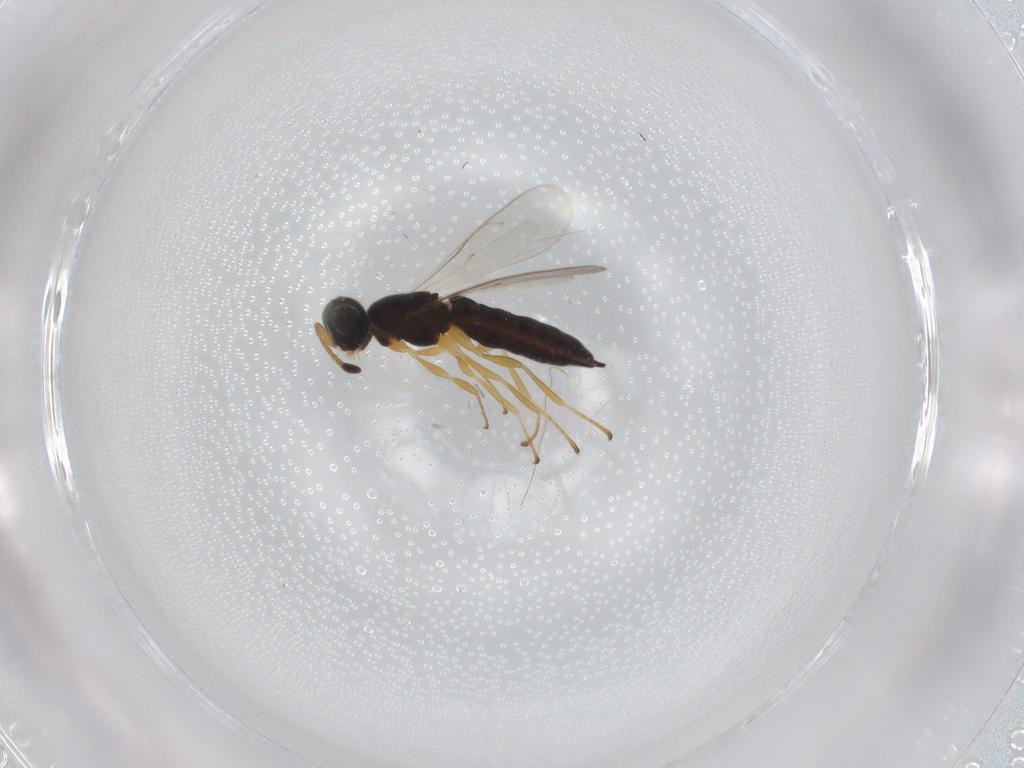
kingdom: Animalia
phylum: Arthropoda
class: Insecta
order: Hymenoptera
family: Scelionidae
